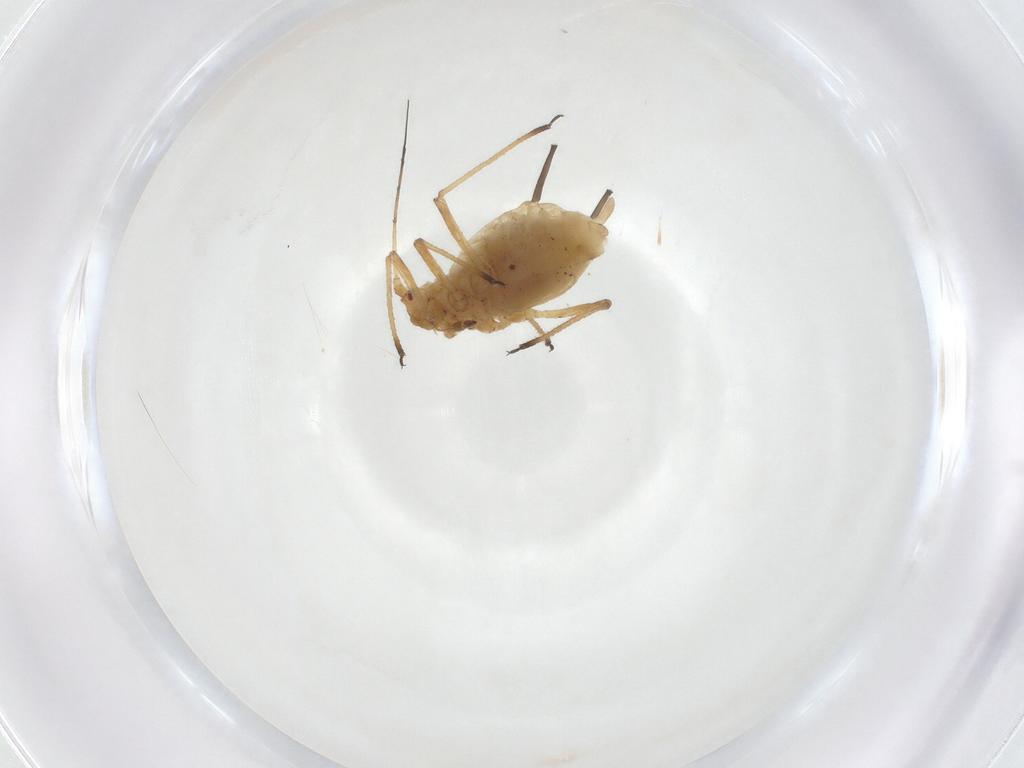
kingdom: Animalia
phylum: Arthropoda
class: Insecta
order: Hemiptera
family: Aphididae
